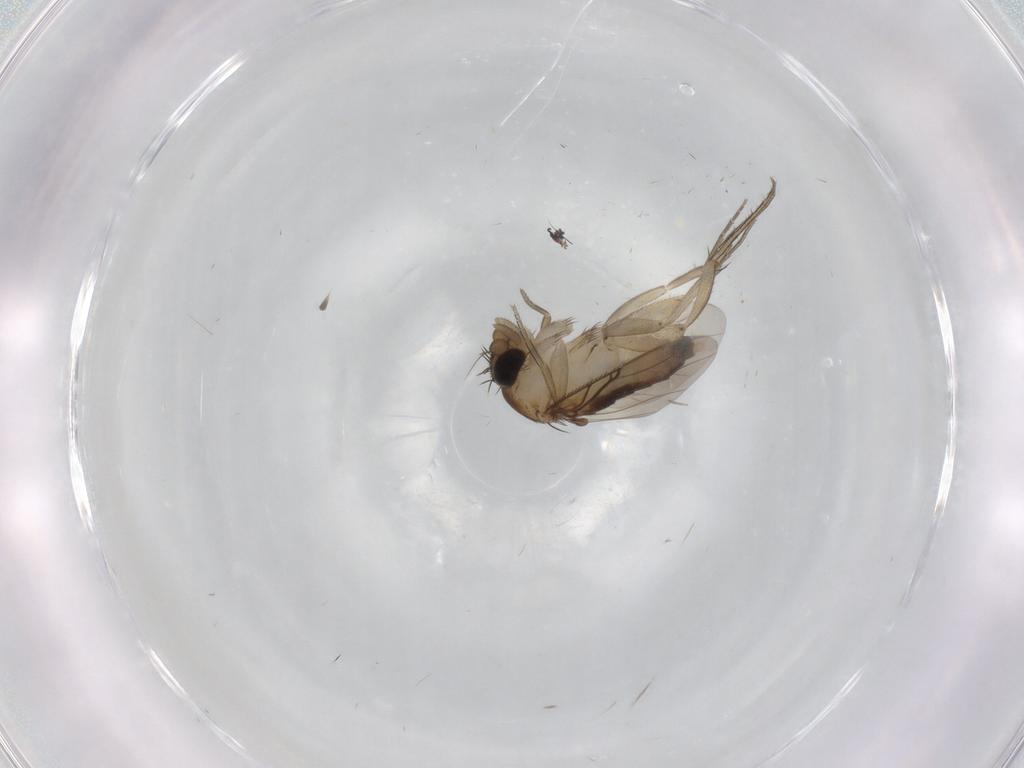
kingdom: Animalia
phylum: Arthropoda
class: Insecta
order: Diptera
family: Phoridae
